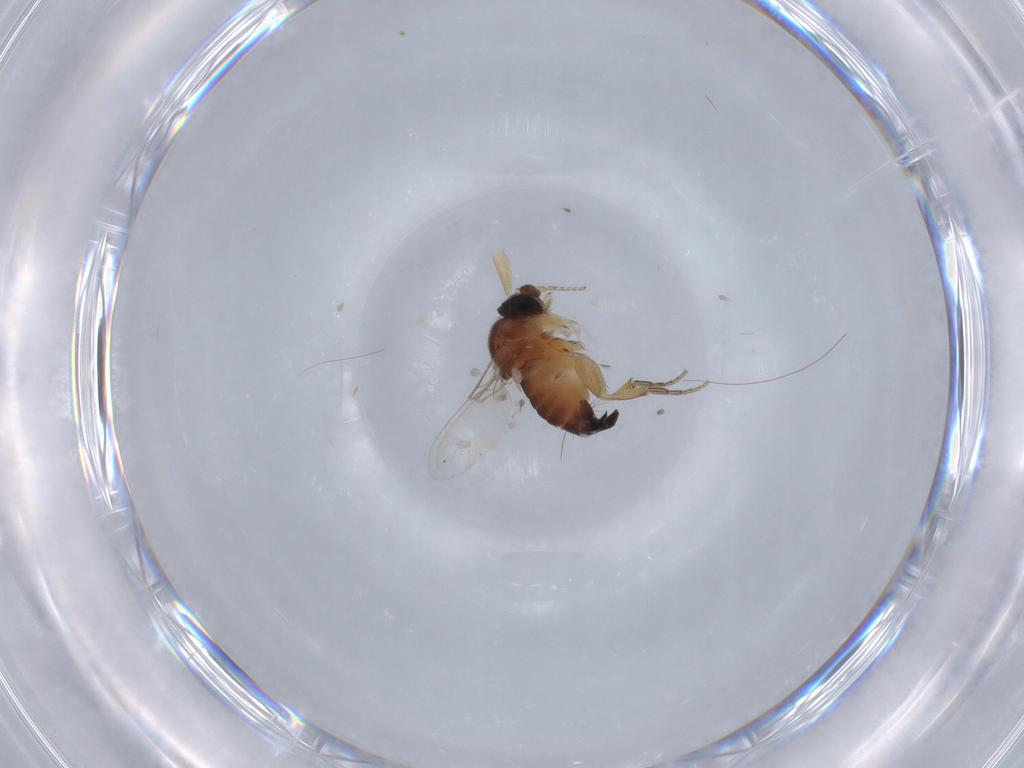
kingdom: Animalia
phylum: Arthropoda
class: Insecta
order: Diptera
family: Phoridae
